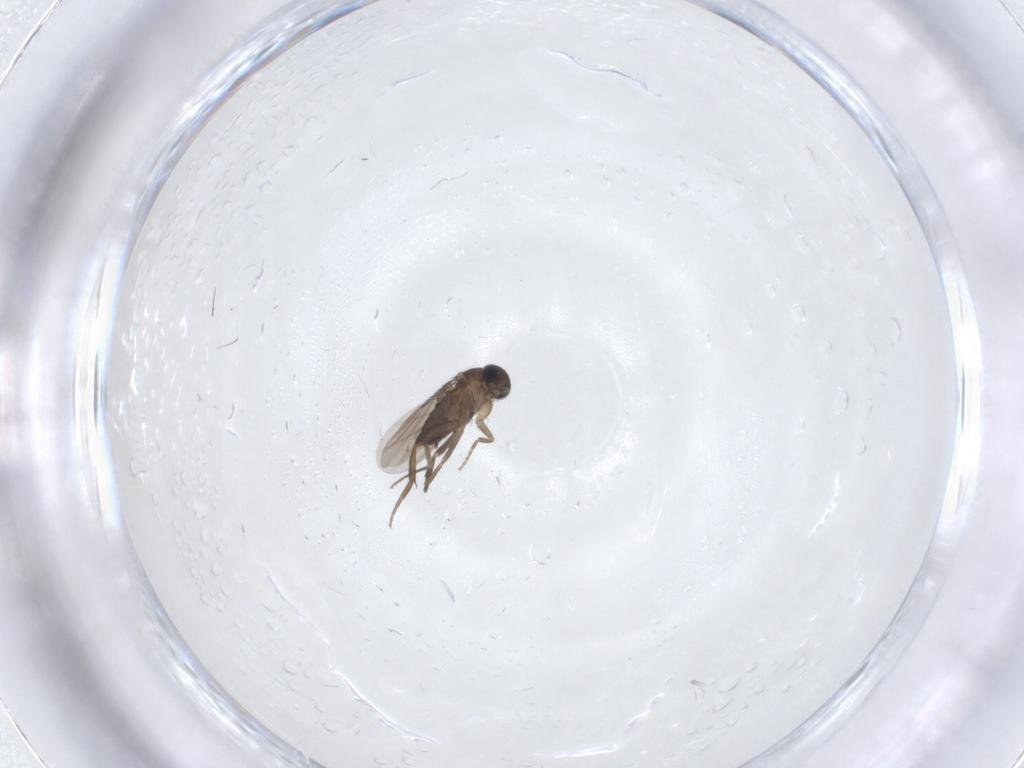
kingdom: Animalia
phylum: Arthropoda
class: Insecta
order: Diptera
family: Phoridae
